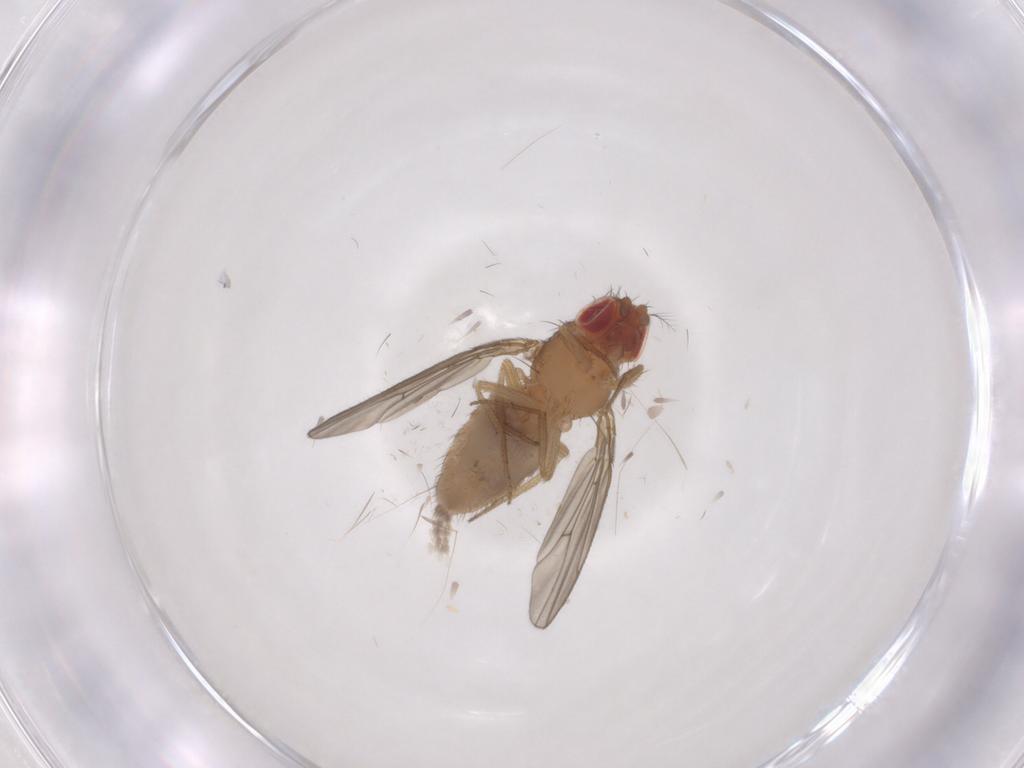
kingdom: Animalia
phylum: Arthropoda
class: Insecta
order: Diptera
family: Drosophilidae
